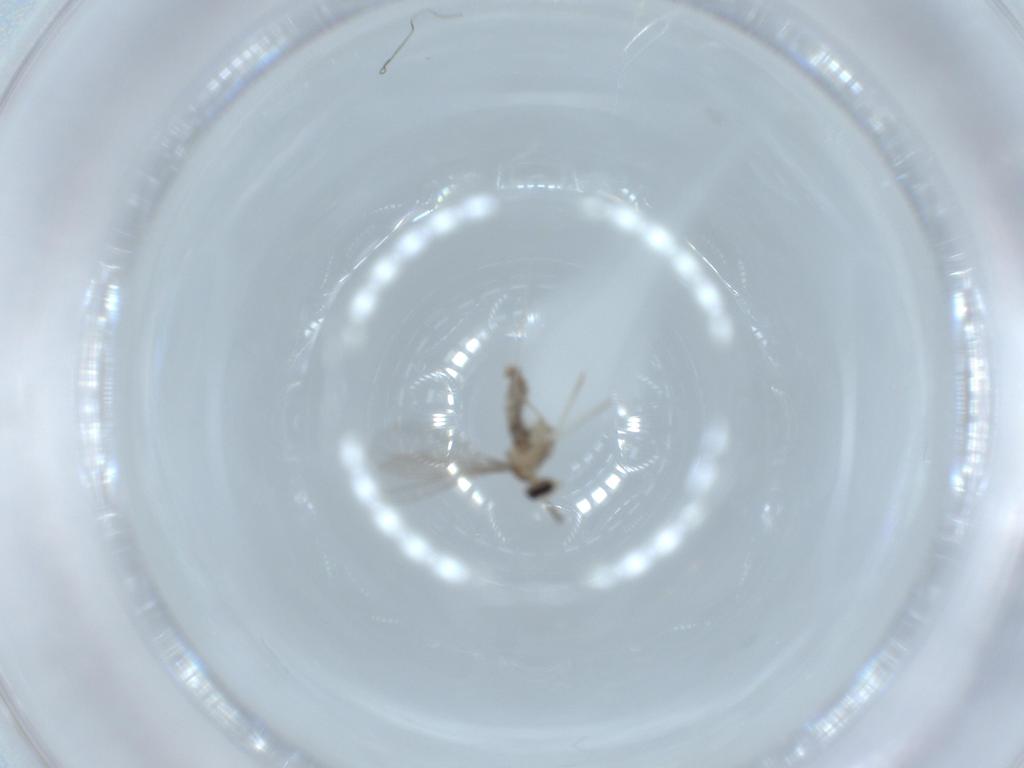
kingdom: Animalia
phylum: Arthropoda
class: Insecta
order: Diptera
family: Cecidomyiidae
